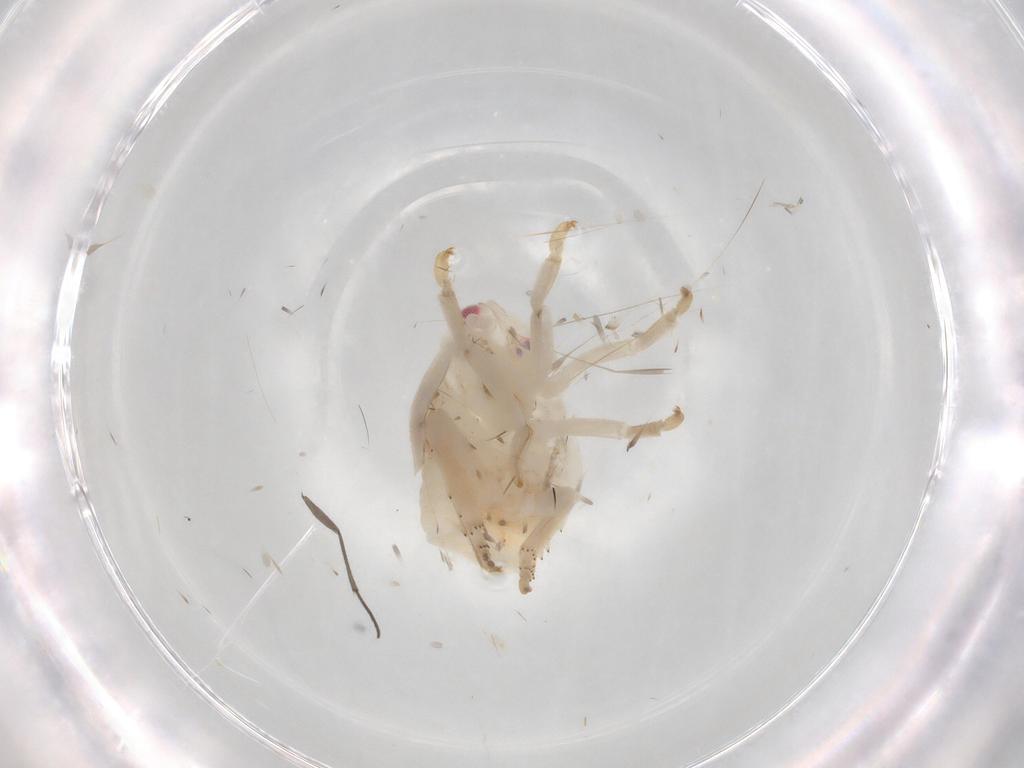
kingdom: Animalia
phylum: Arthropoda
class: Insecta
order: Hemiptera
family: Flatidae
